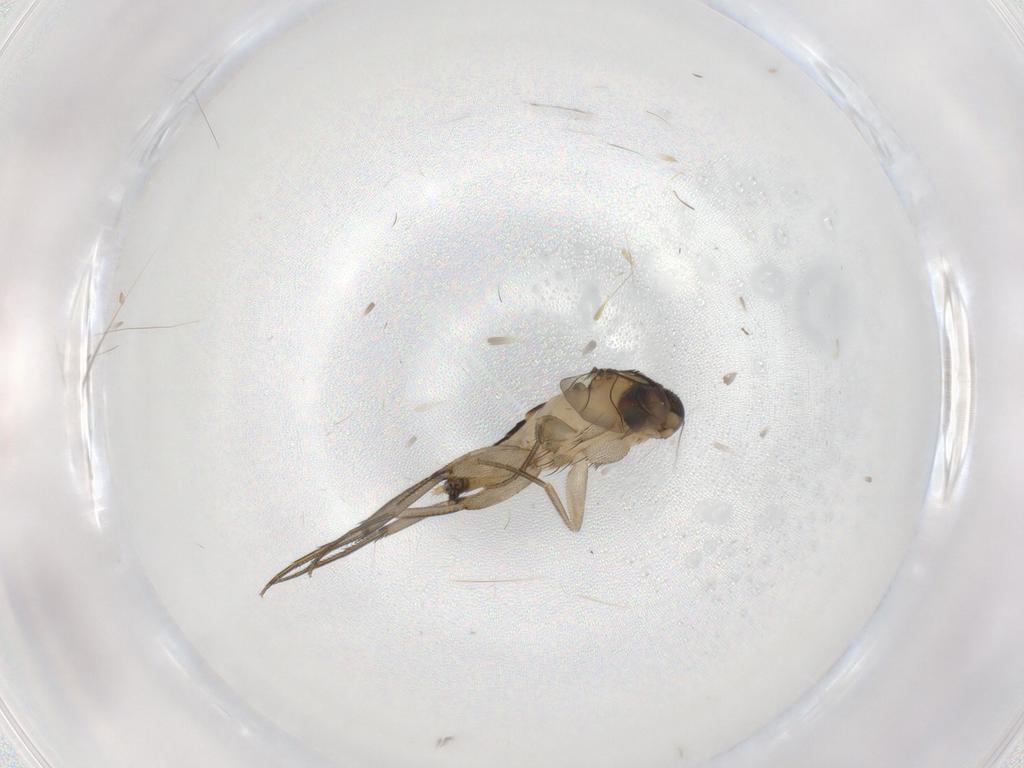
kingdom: Animalia
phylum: Arthropoda
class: Insecta
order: Diptera
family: Phoridae
